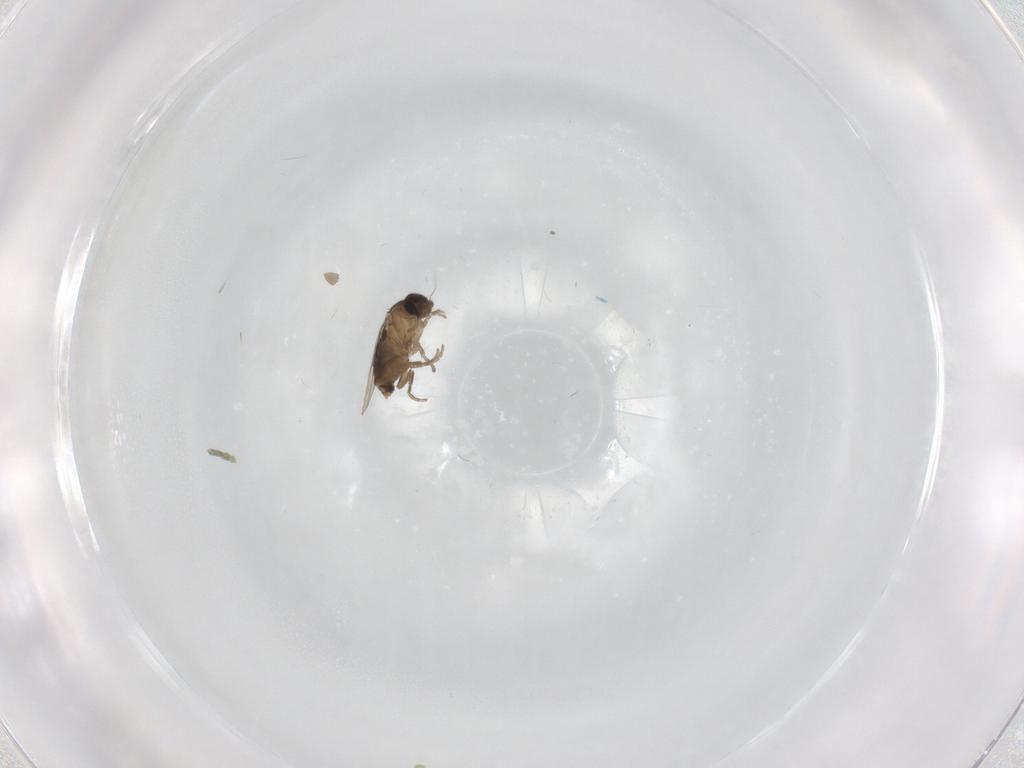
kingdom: Animalia
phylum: Arthropoda
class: Insecta
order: Diptera
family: Phoridae
